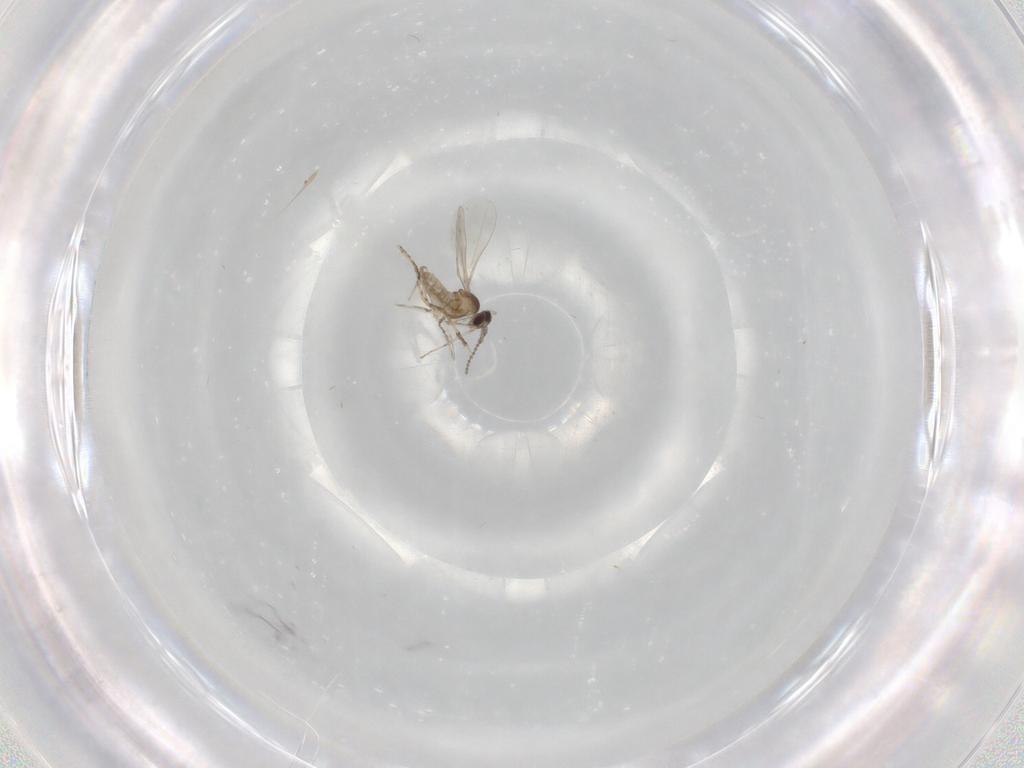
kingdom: Animalia
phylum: Arthropoda
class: Insecta
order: Diptera
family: Cecidomyiidae
